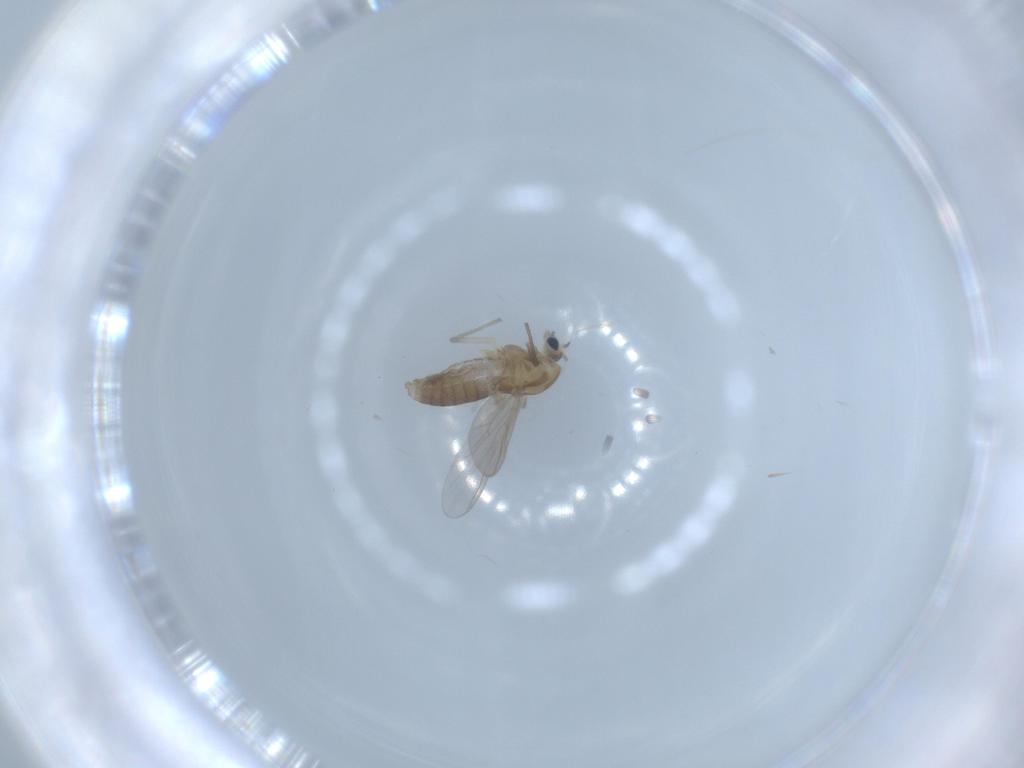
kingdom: Animalia
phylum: Arthropoda
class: Insecta
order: Diptera
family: Chironomidae
